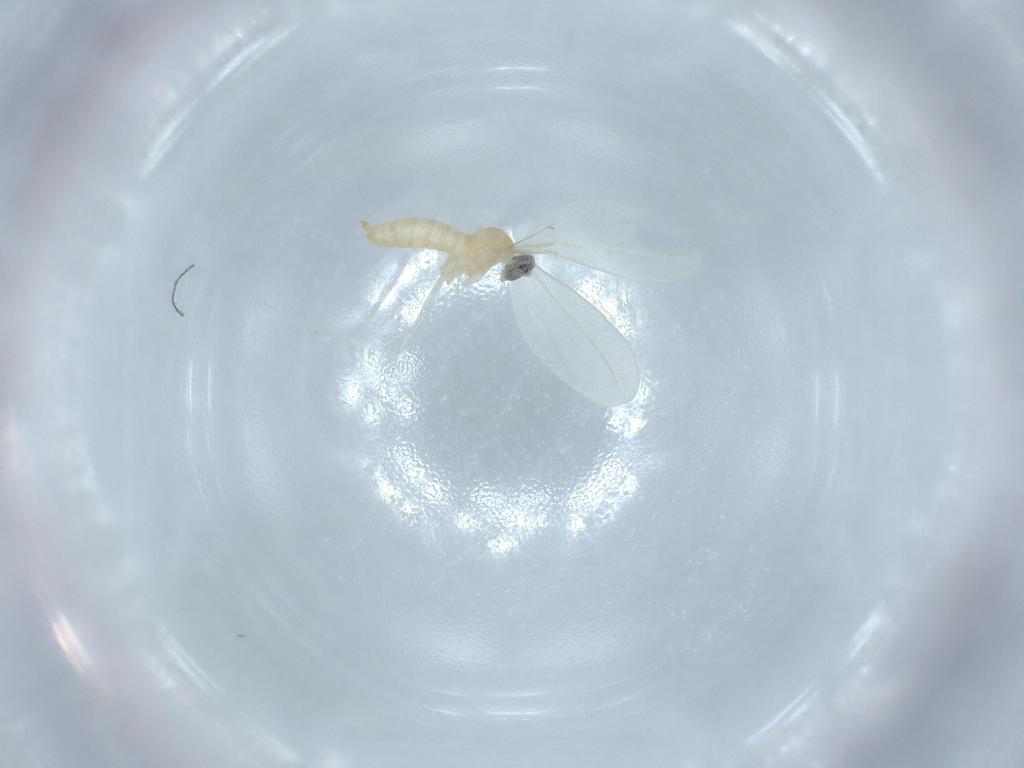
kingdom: Animalia
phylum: Arthropoda
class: Insecta
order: Diptera
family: Cecidomyiidae
